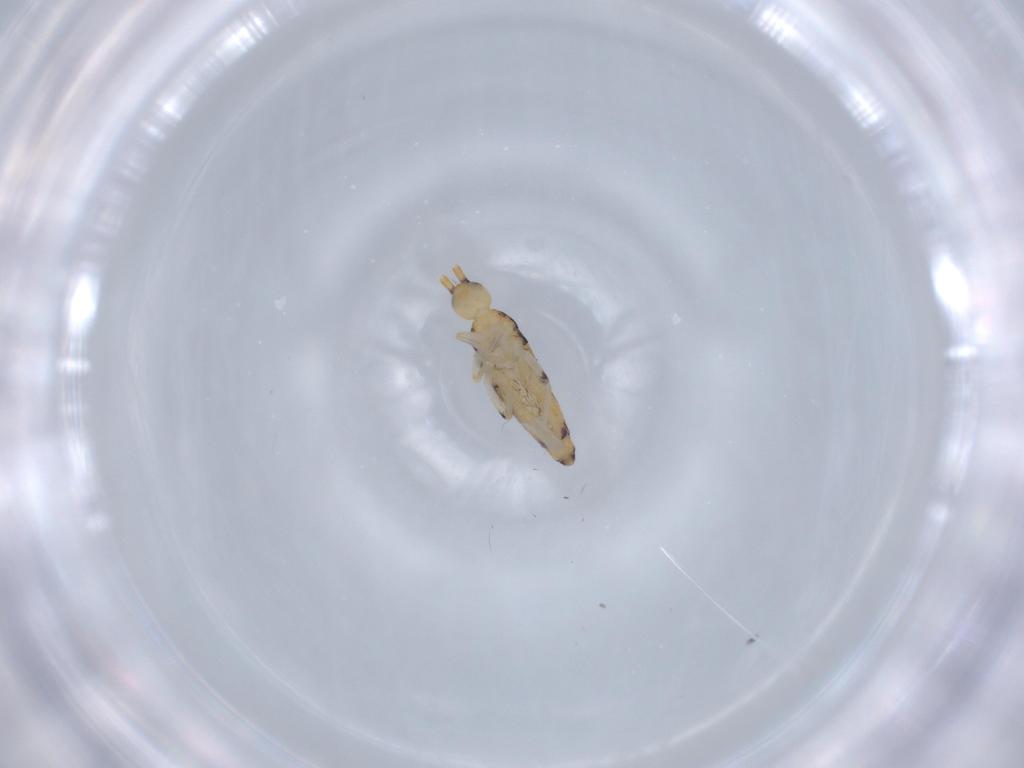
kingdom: Animalia
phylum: Arthropoda
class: Collembola
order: Entomobryomorpha
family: Entomobryidae
